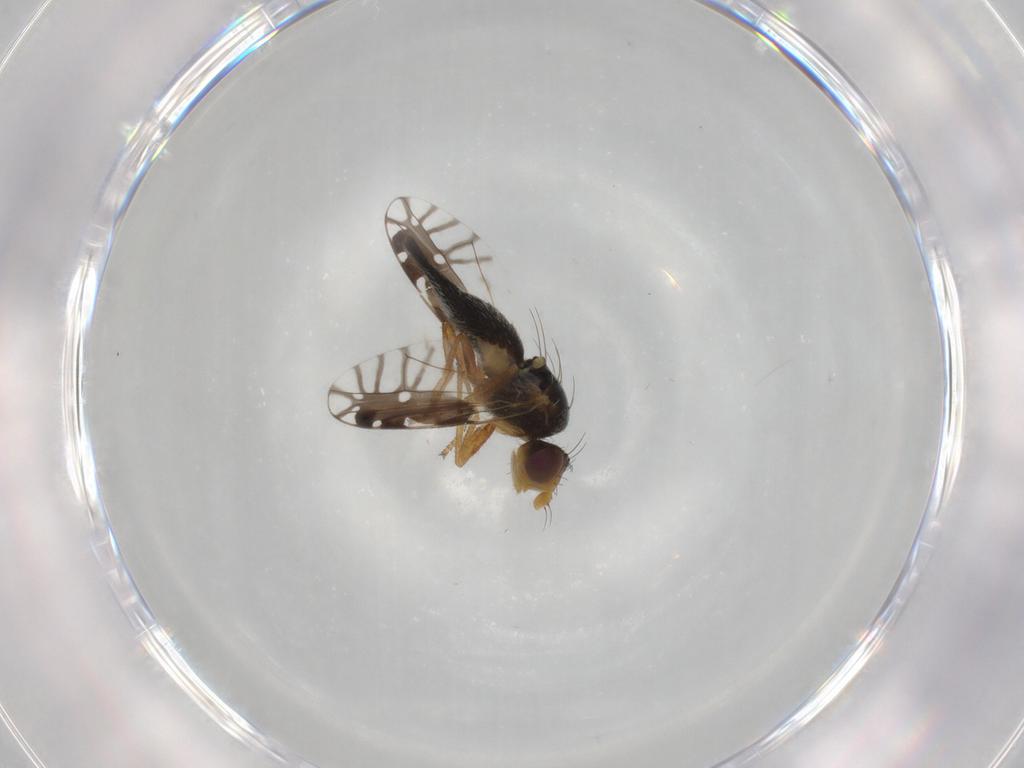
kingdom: Animalia
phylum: Arthropoda
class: Insecta
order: Diptera
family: Tephritidae
